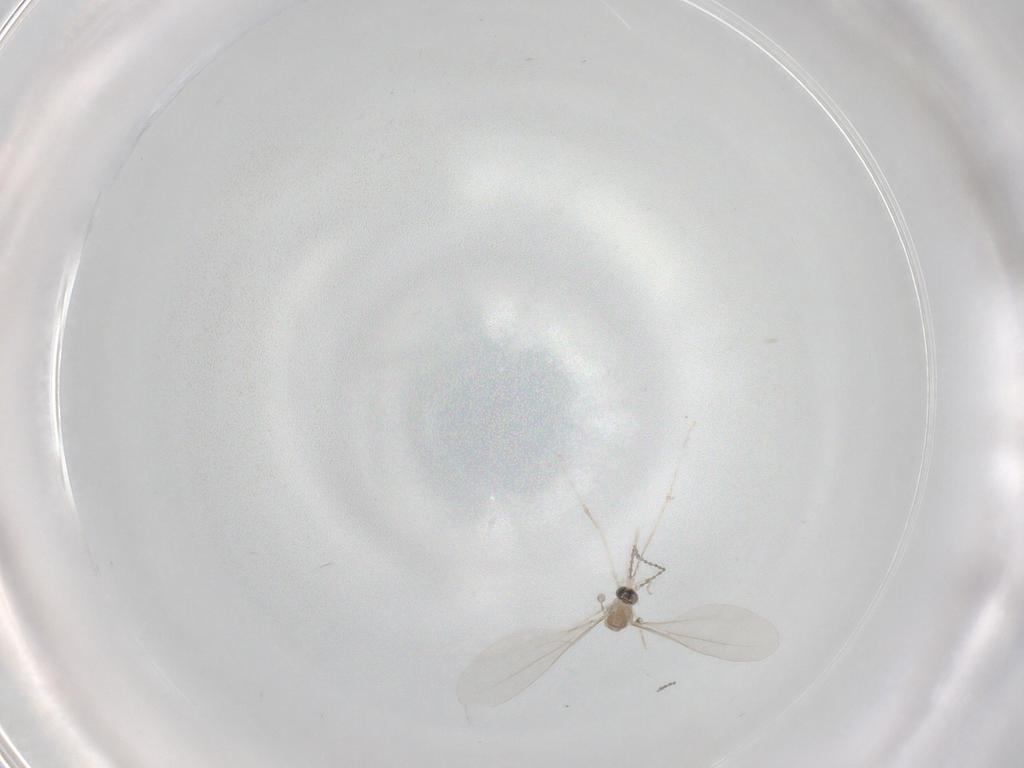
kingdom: Animalia
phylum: Arthropoda
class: Insecta
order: Diptera
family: Cecidomyiidae
